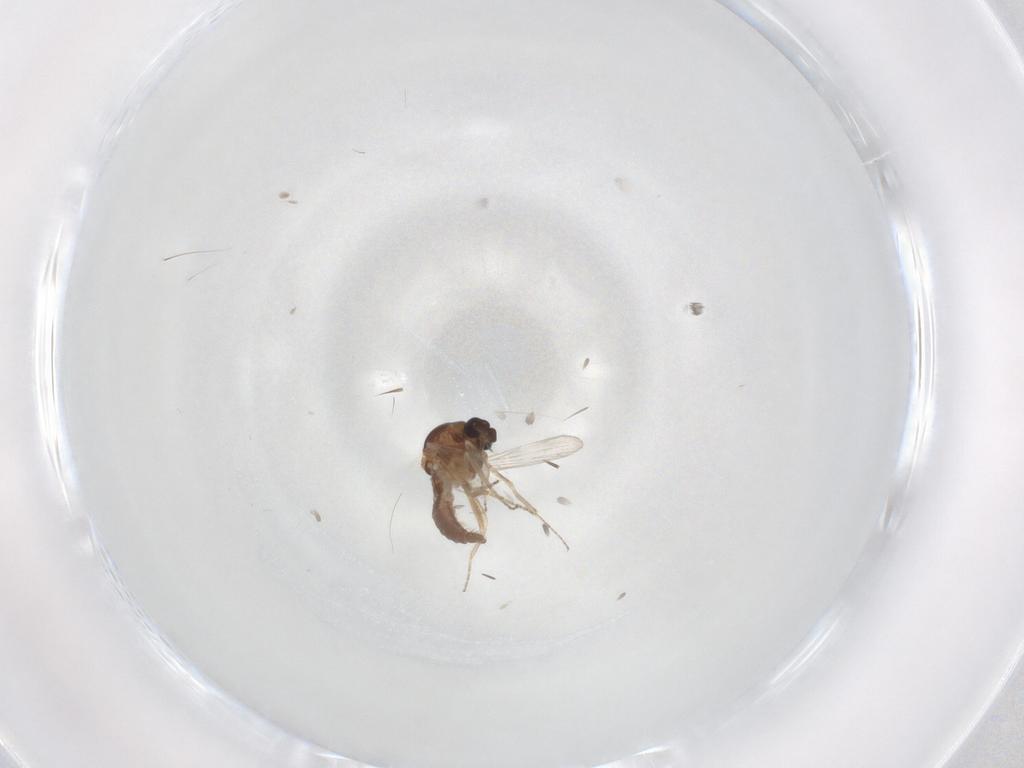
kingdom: Animalia
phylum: Arthropoda
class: Insecta
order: Diptera
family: Ceratopogonidae
